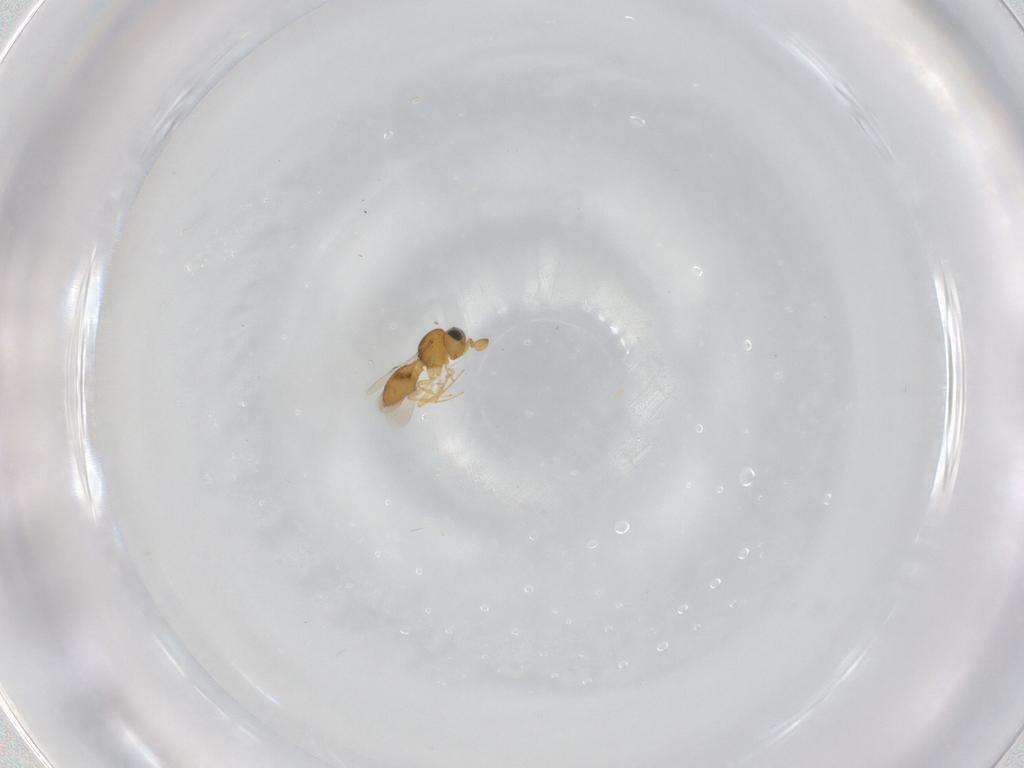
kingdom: Animalia
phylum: Arthropoda
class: Insecta
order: Hymenoptera
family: Scelionidae
